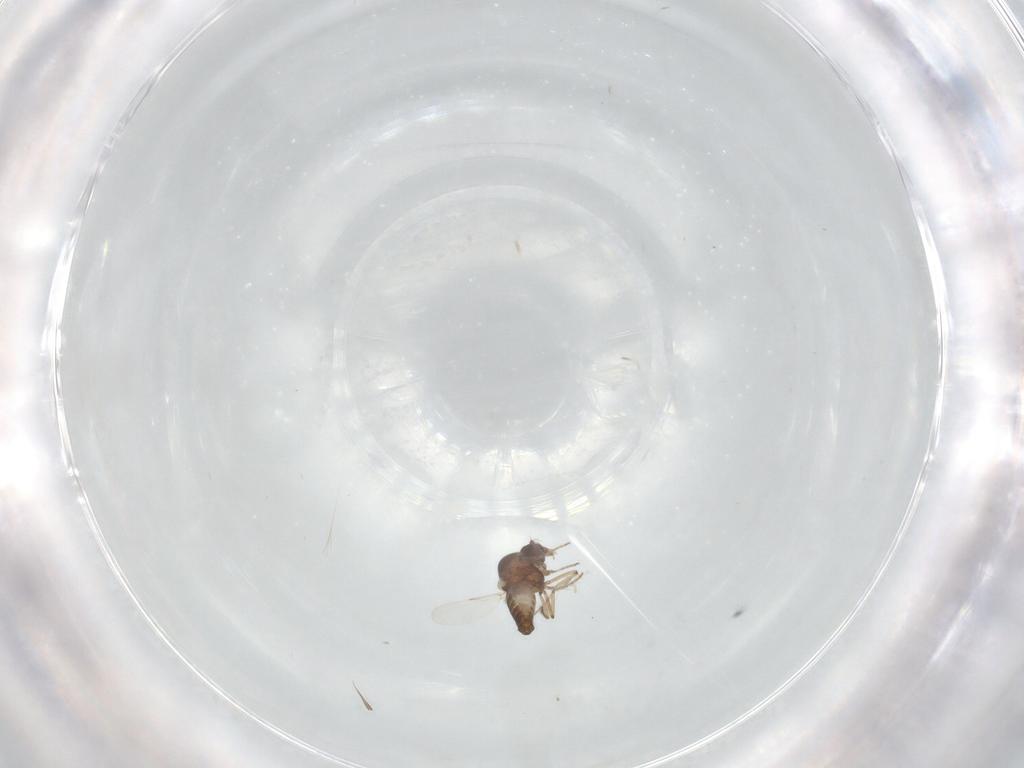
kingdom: Animalia
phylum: Arthropoda
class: Insecta
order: Diptera
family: Ceratopogonidae
